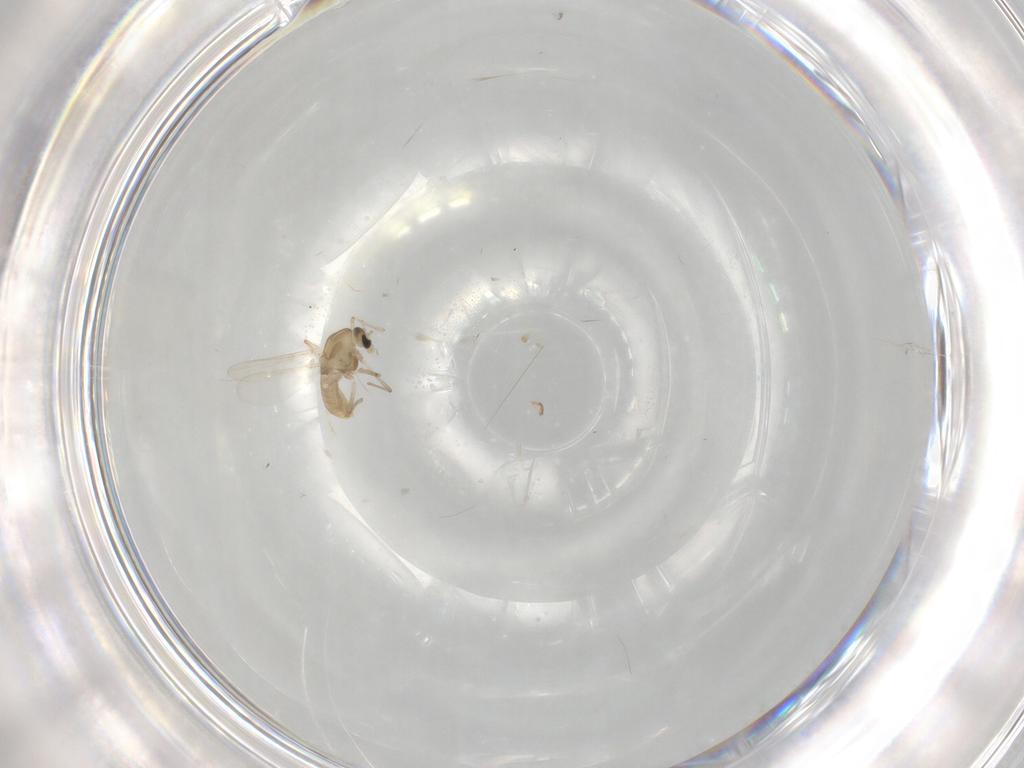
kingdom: Animalia
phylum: Arthropoda
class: Insecta
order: Diptera
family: Chironomidae
